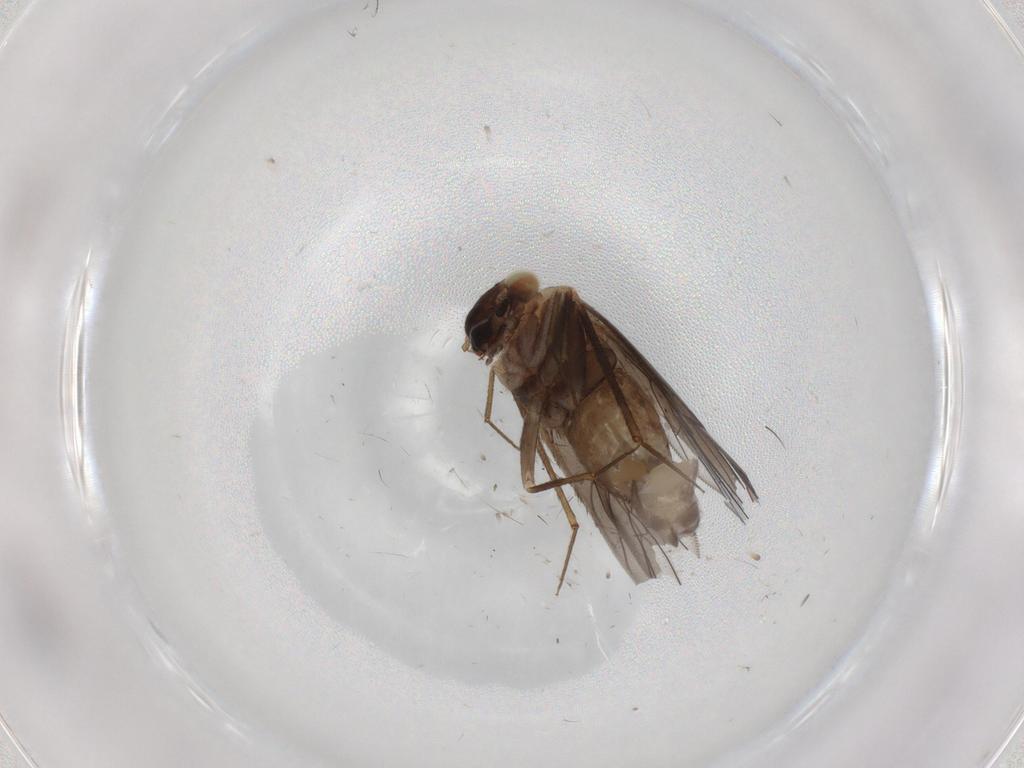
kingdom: Animalia
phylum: Arthropoda
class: Insecta
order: Psocodea
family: Lepidopsocidae
